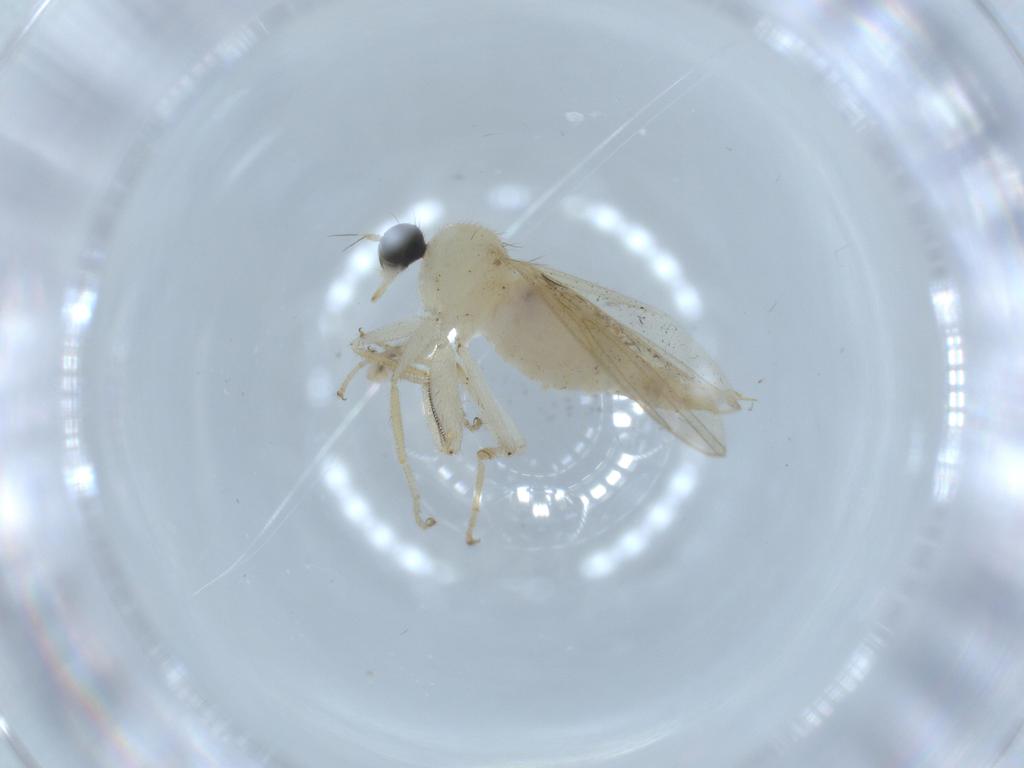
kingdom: Animalia
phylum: Arthropoda
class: Insecta
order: Diptera
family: Hybotidae
